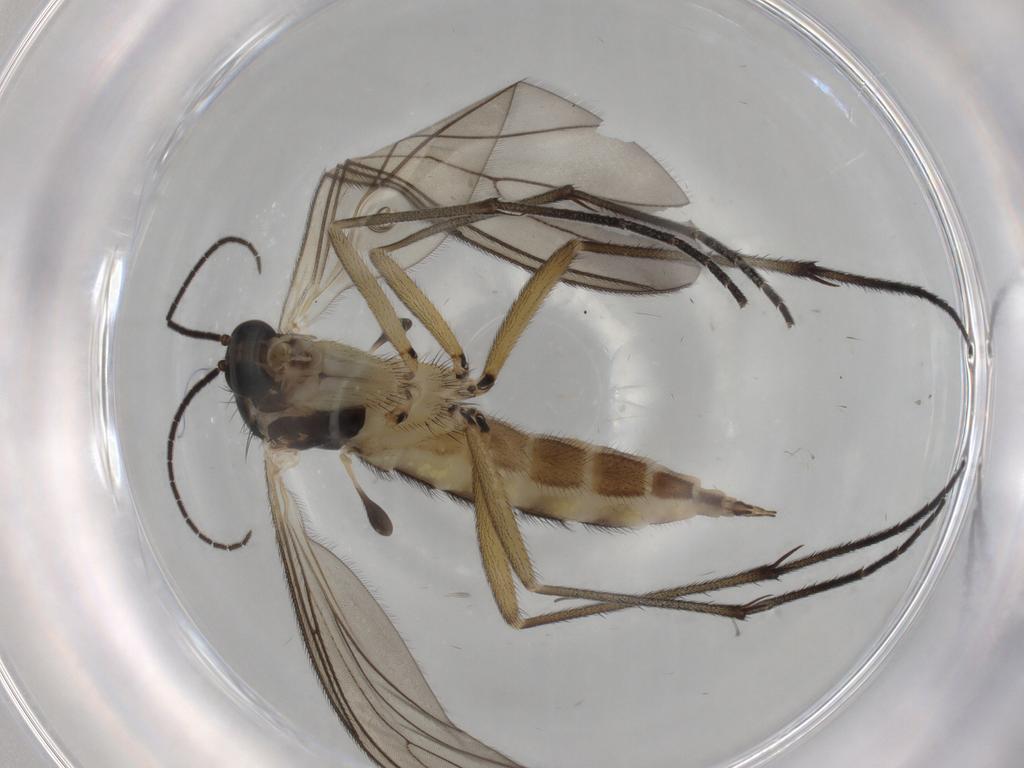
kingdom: Animalia
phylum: Arthropoda
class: Insecta
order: Diptera
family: Sciaridae
